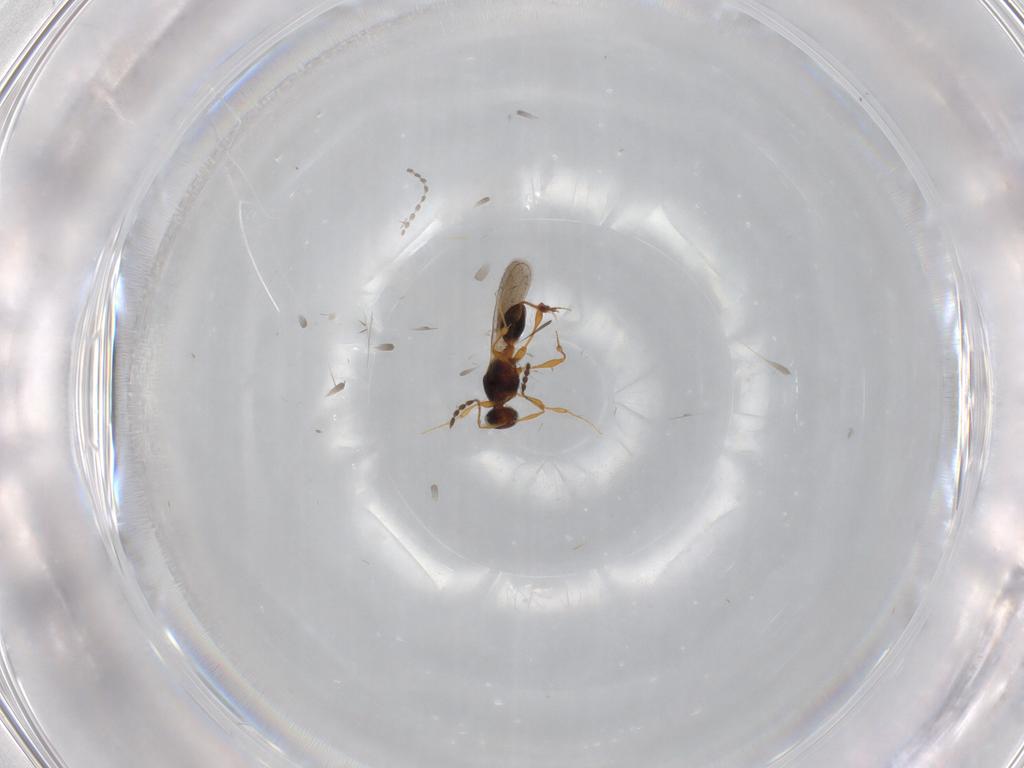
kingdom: Animalia
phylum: Arthropoda
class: Insecta
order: Hymenoptera
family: Platygastridae
